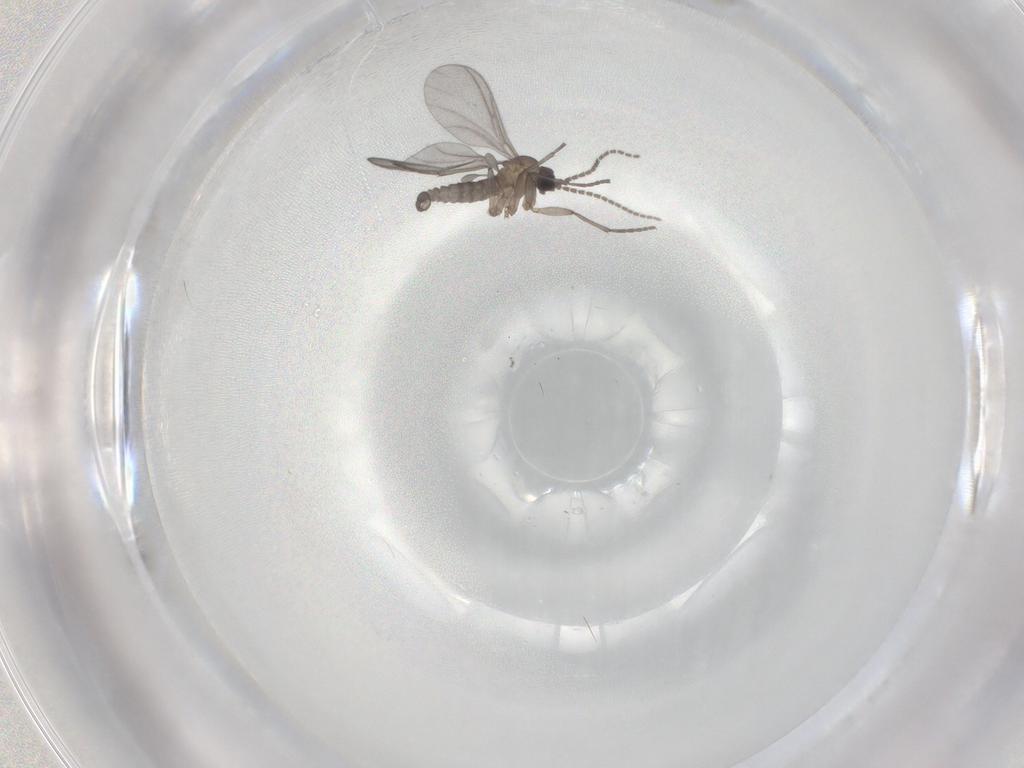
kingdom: Animalia
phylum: Arthropoda
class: Insecta
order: Diptera
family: Sciaridae
